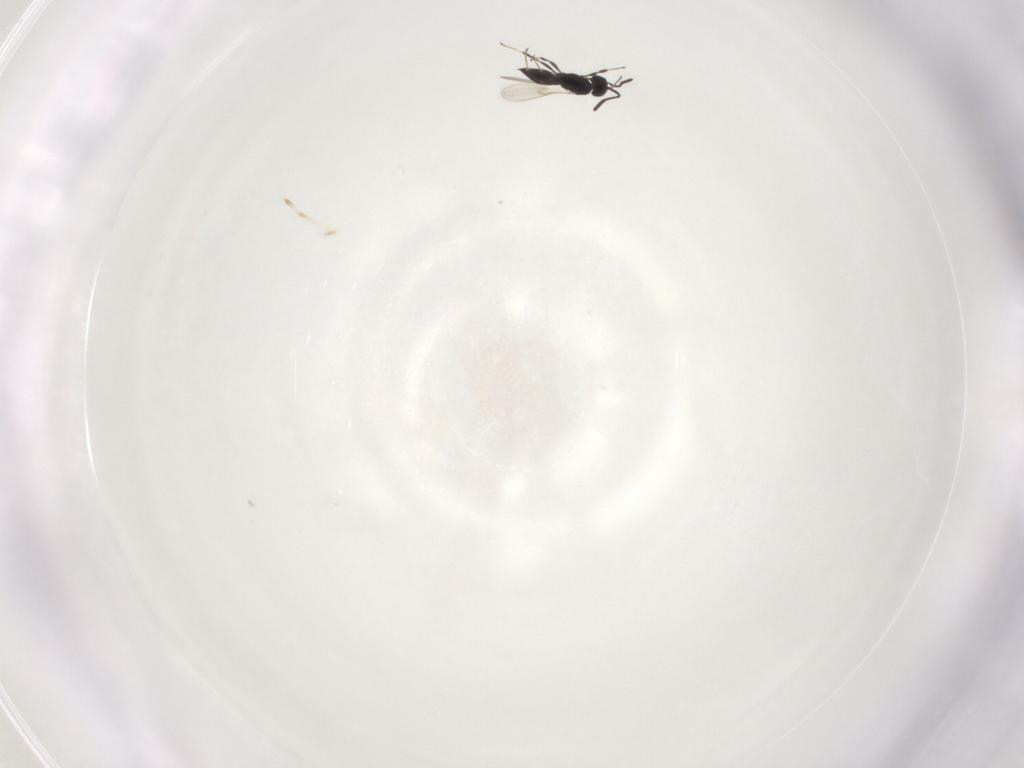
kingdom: Animalia
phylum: Arthropoda
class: Insecta
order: Hymenoptera
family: Scelionidae
